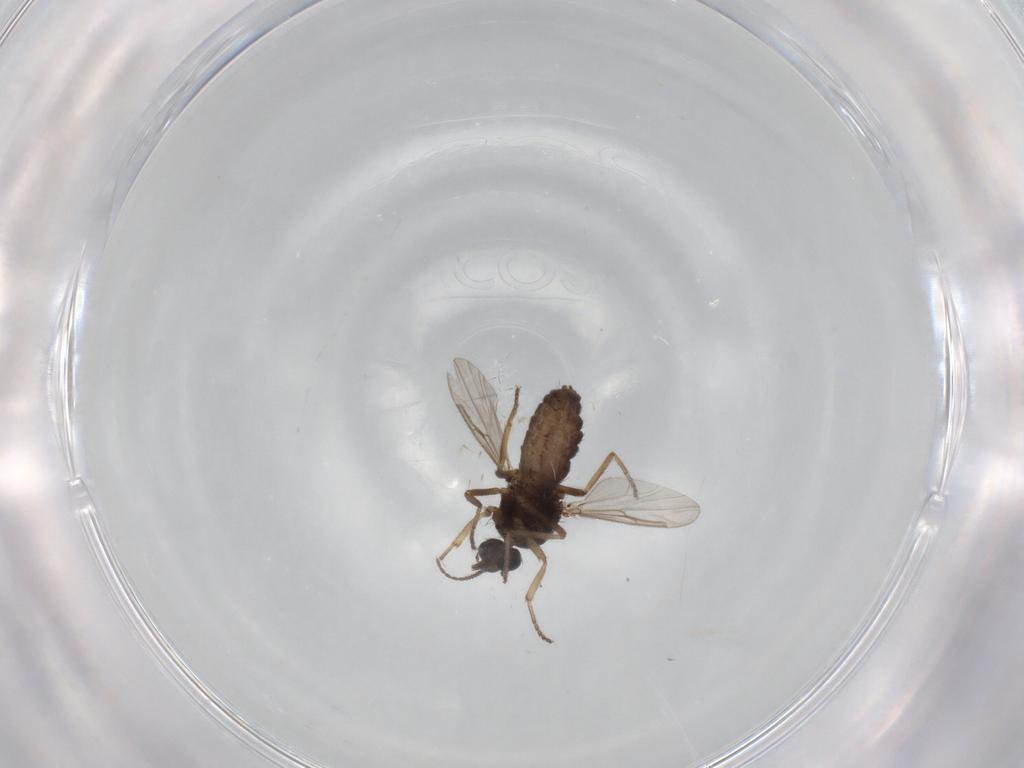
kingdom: Animalia
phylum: Arthropoda
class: Insecta
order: Diptera
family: Ceratopogonidae
